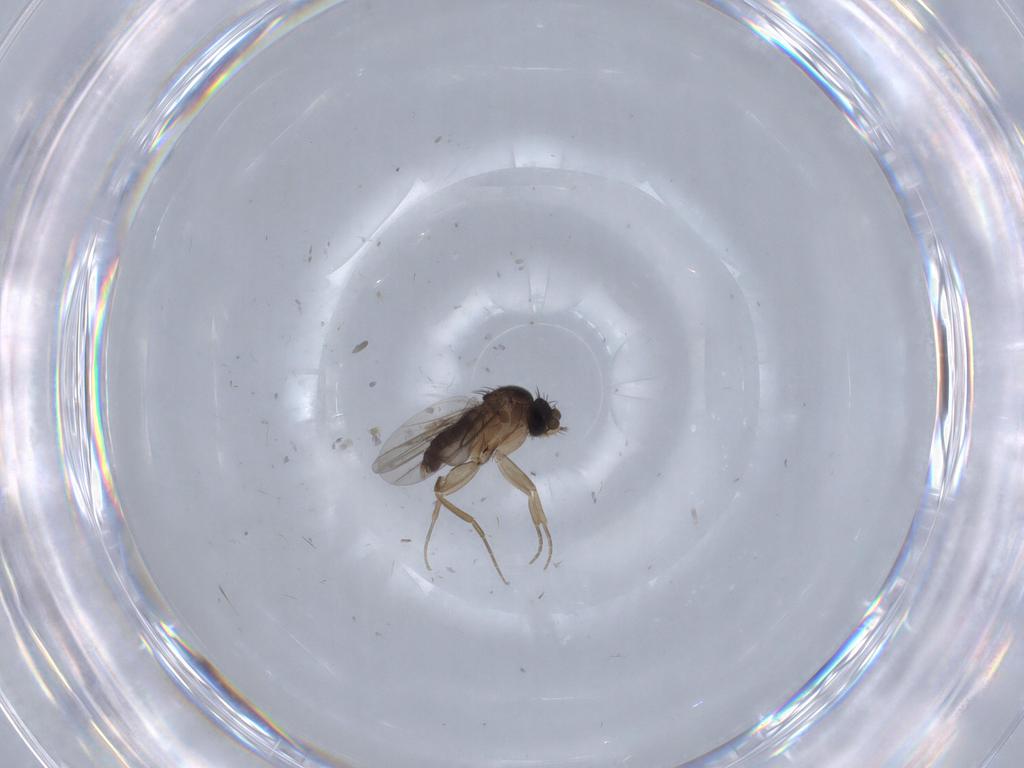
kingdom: Animalia
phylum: Arthropoda
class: Insecta
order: Diptera
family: Phoridae
